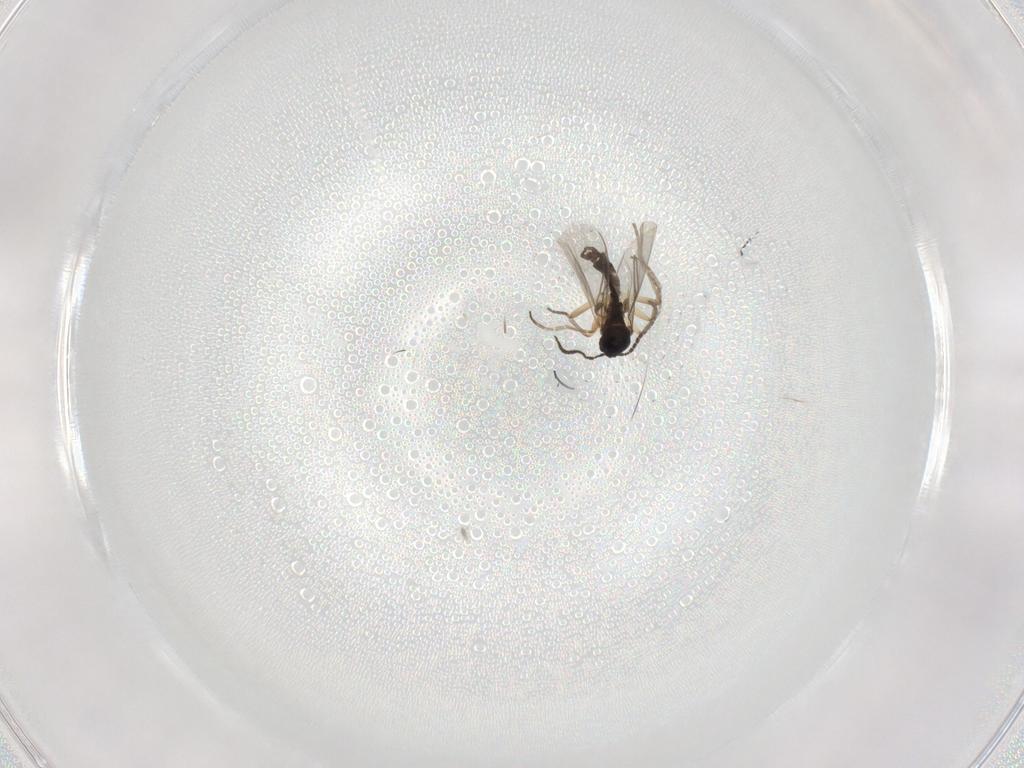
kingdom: Animalia
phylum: Arthropoda
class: Insecta
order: Diptera
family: Sciaridae
